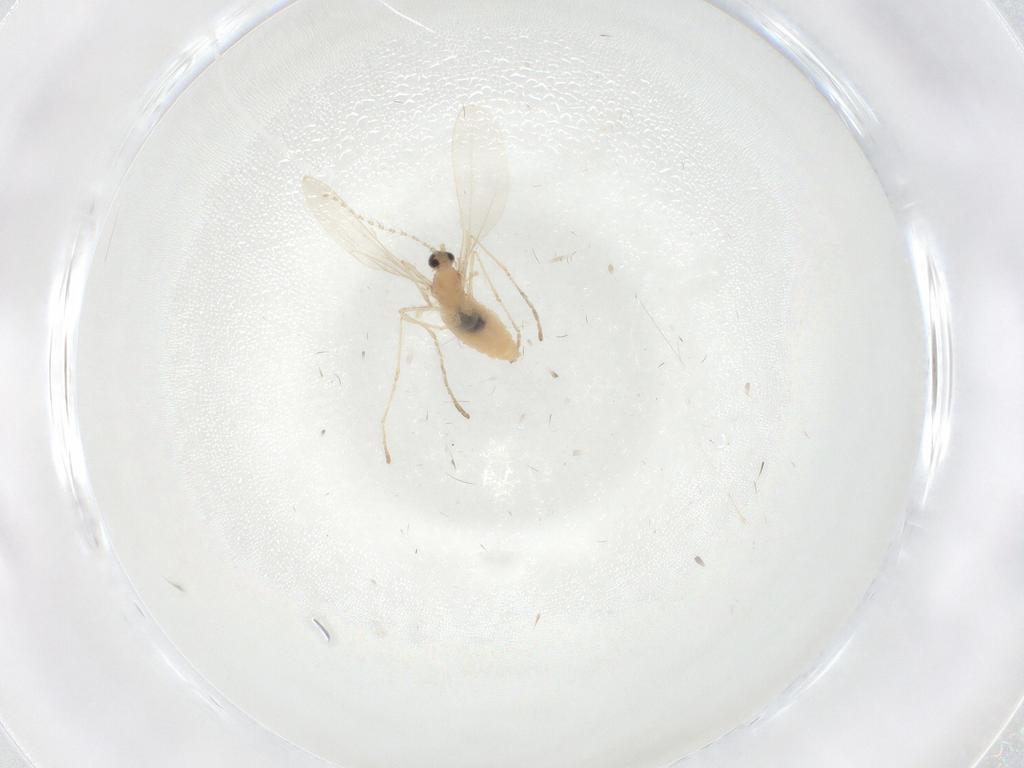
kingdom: Animalia
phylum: Arthropoda
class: Insecta
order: Diptera
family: Cecidomyiidae
